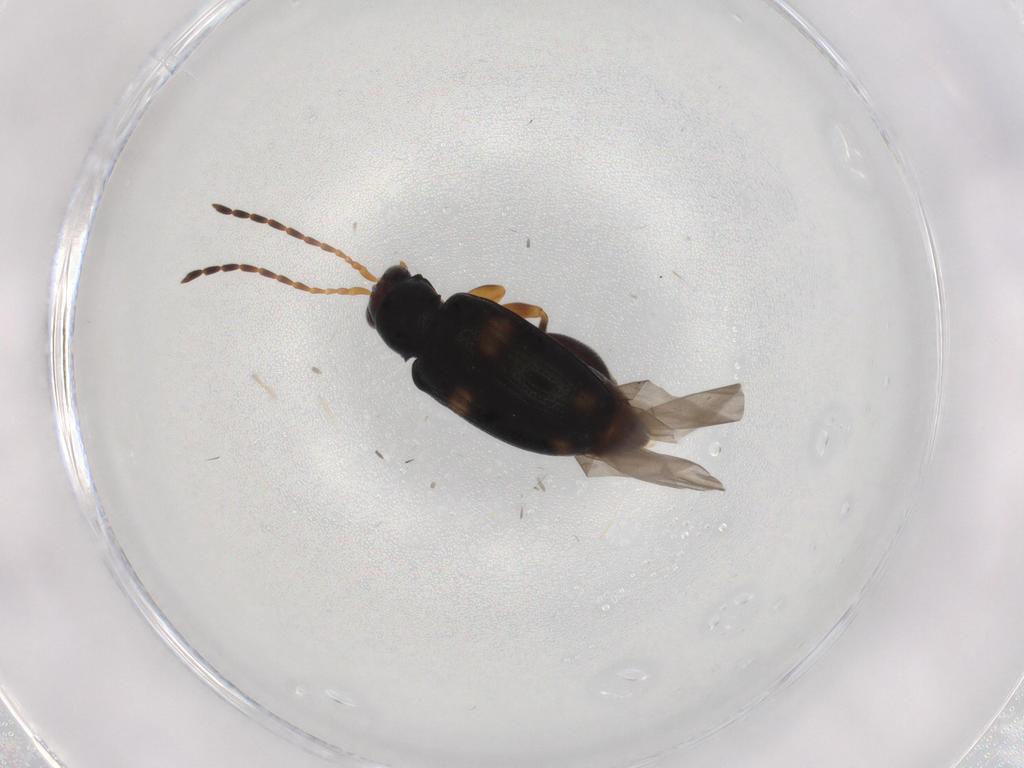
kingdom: Animalia
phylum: Arthropoda
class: Insecta
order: Coleoptera
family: Chrysomelidae
